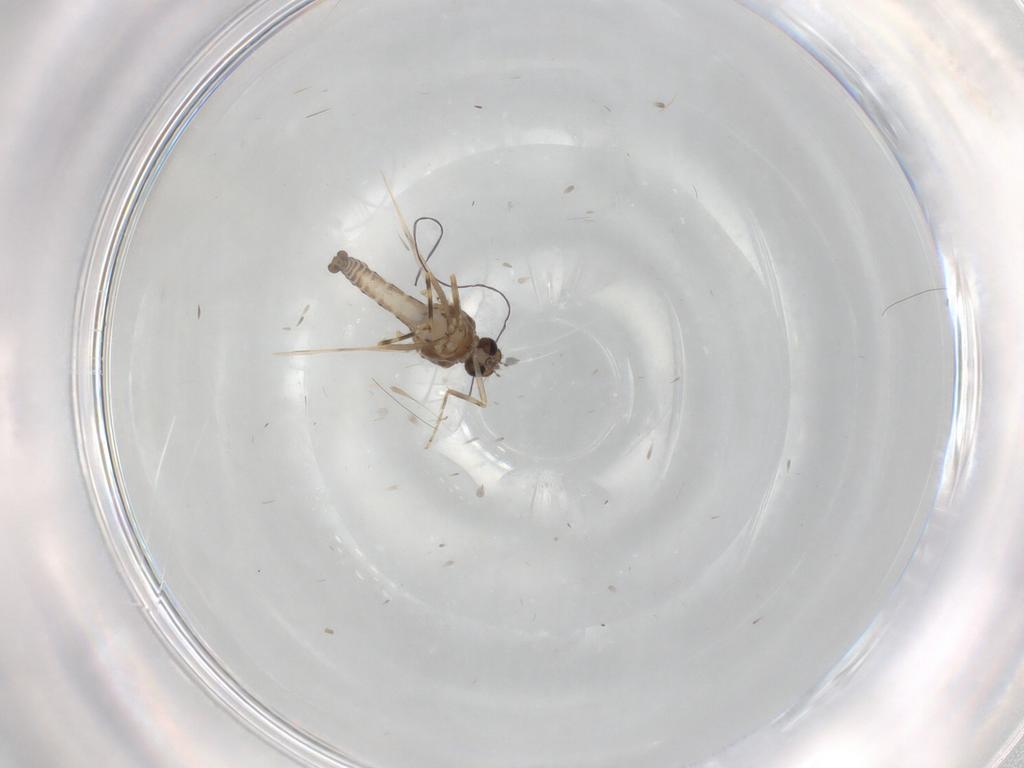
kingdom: Animalia
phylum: Arthropoda
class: Insecta
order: Diptera
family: Ceratopogonidae
